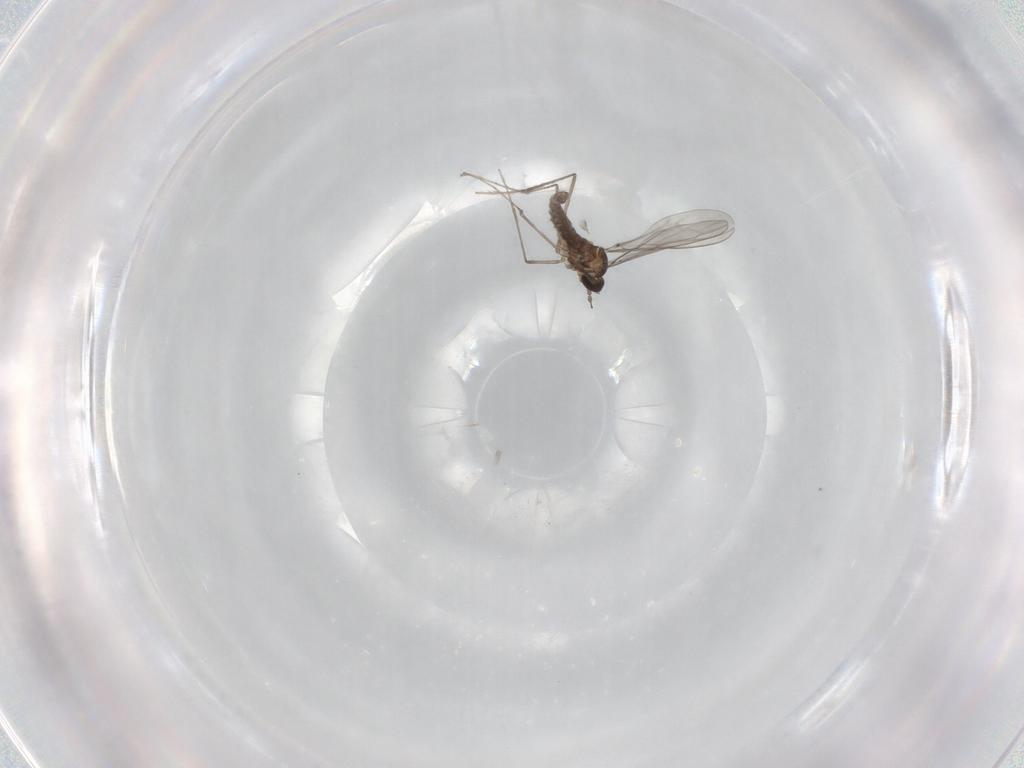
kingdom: Animalia
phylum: Arthropoda
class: Insecta
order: Diptera
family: Cecidomyiidae
